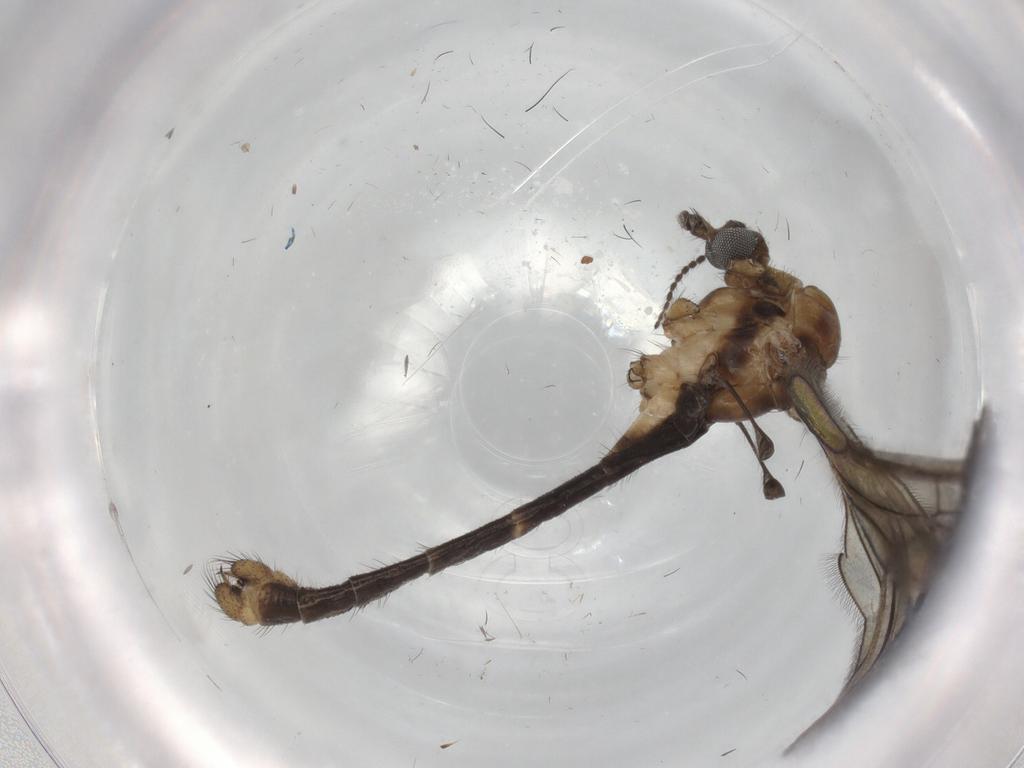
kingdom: Animalia
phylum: Arthropoda
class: Insecta
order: Diptera
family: Limoniidae
